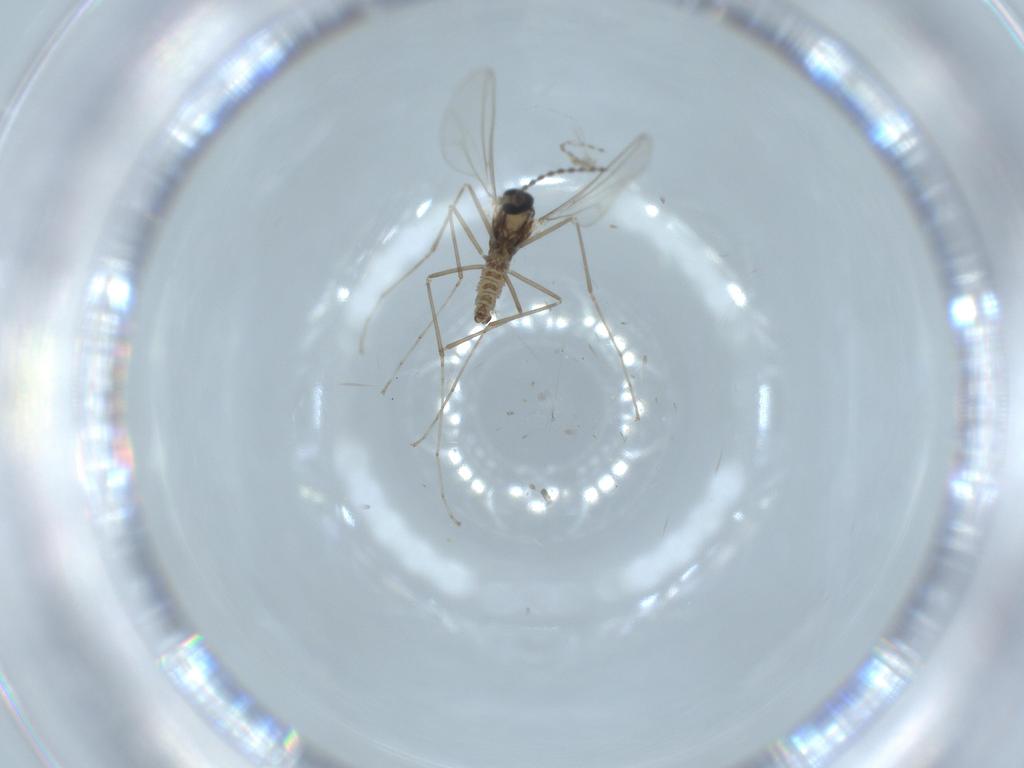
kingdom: Animalia
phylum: Arthropoda
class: Insecta
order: Diptera
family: Cecidomyiidae
